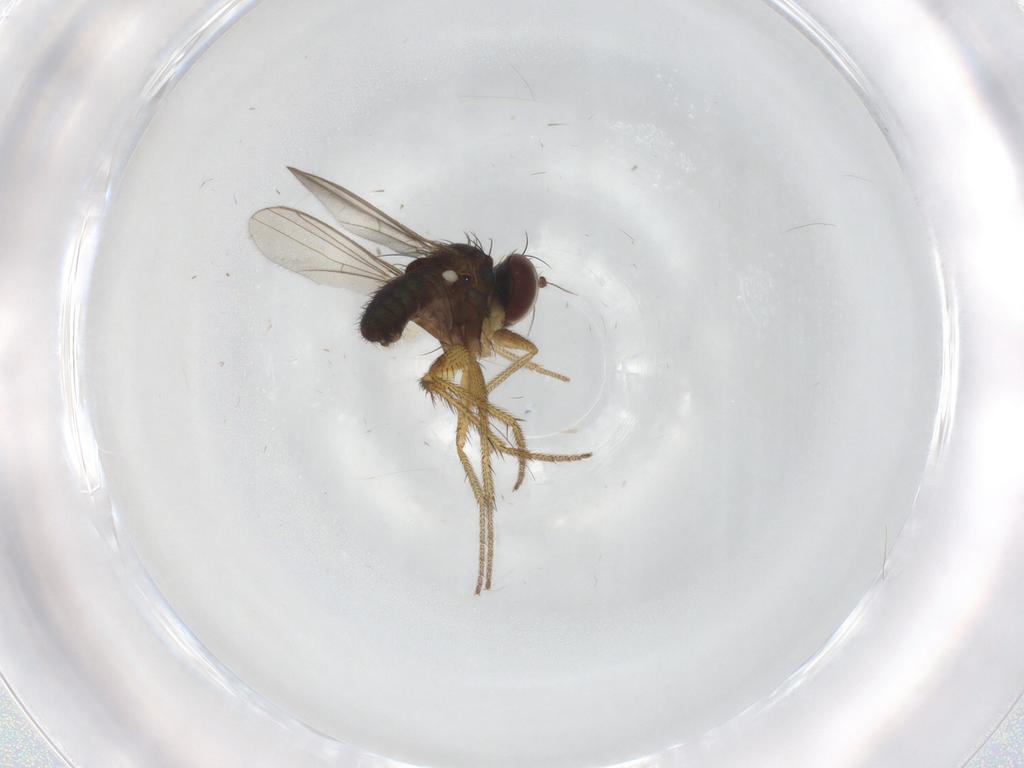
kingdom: Animalia
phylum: Arthropoda
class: Insecta
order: Diptera
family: Dolichopodidae
